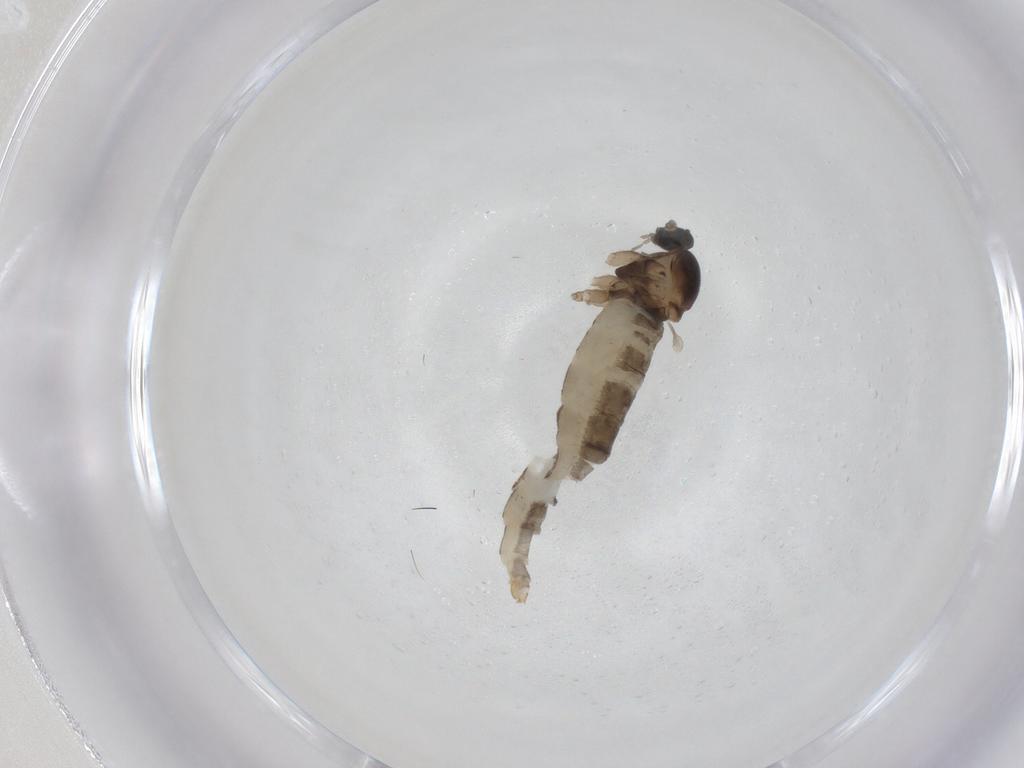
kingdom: Animalia
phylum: Arthropoda
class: Insecta
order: Diptera
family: Cecidomyiidae
